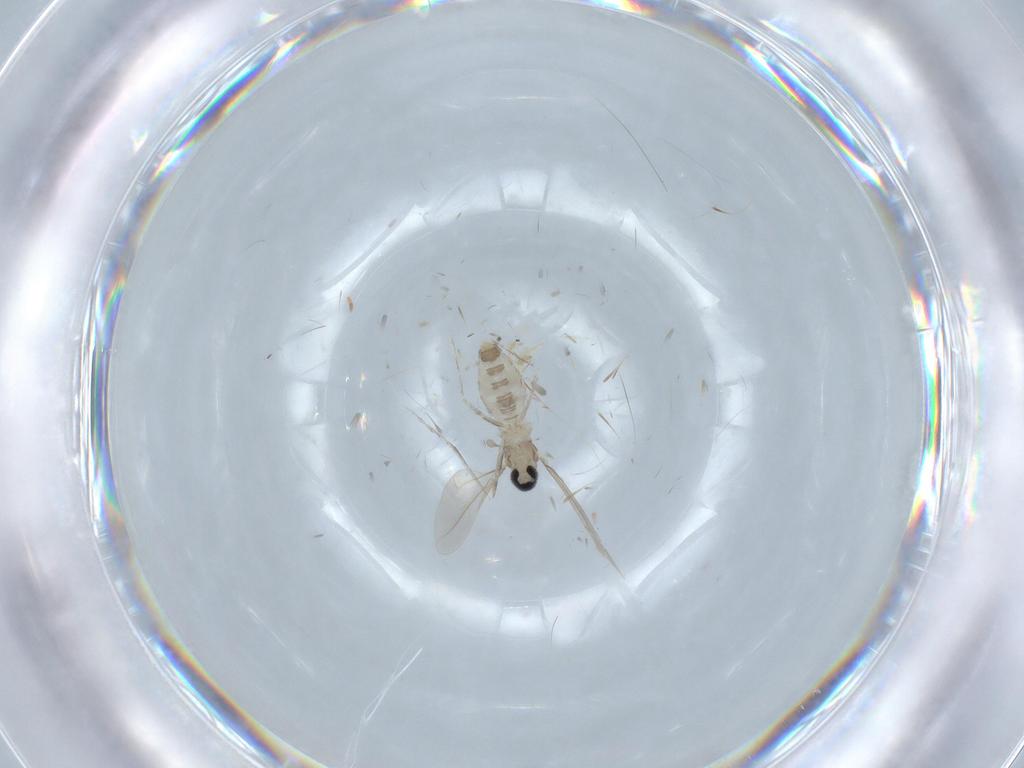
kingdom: Animalia
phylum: Arthropoda
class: Insecta
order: Diptera
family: Cecidomyiidae
